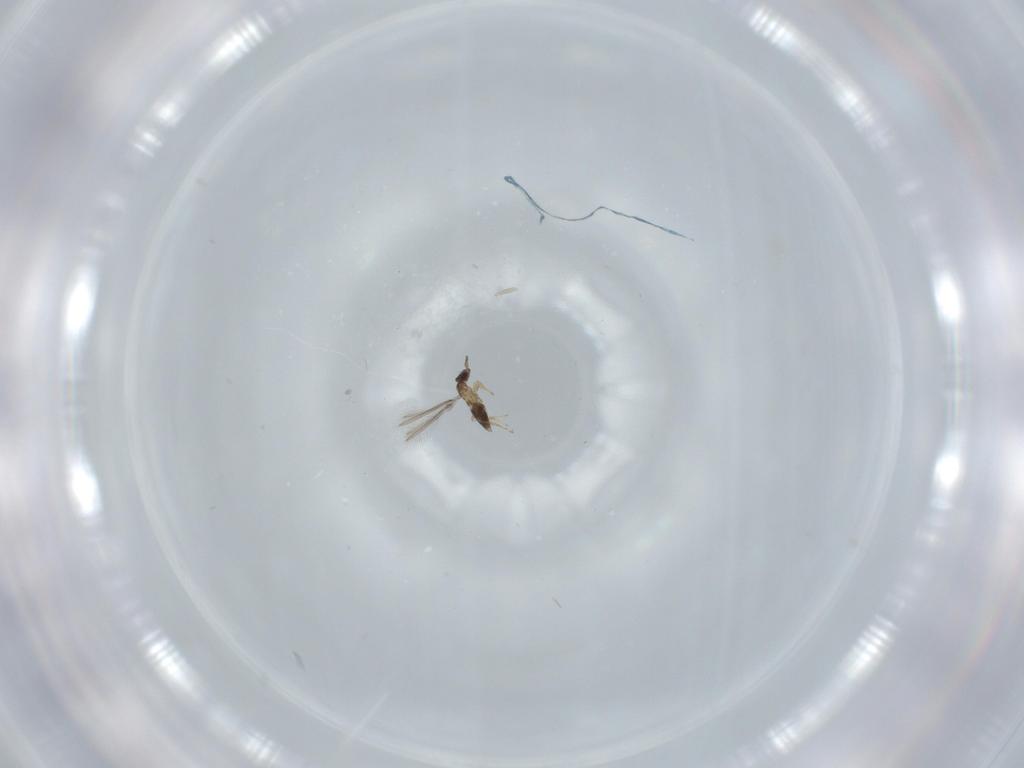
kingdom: Animalia
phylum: Arthropoda
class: Insecta
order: Hymenoptera
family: Mymaridae
